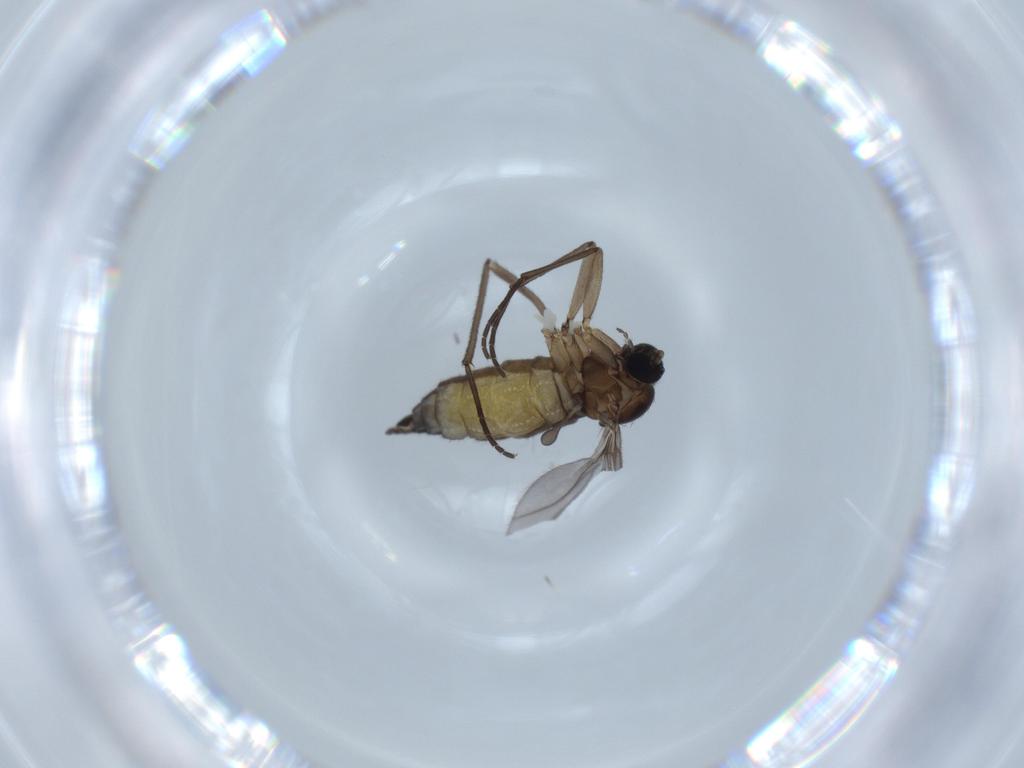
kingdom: Animalia
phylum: Arthropoda
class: Insecta
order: Diptera
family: Sciaridae
